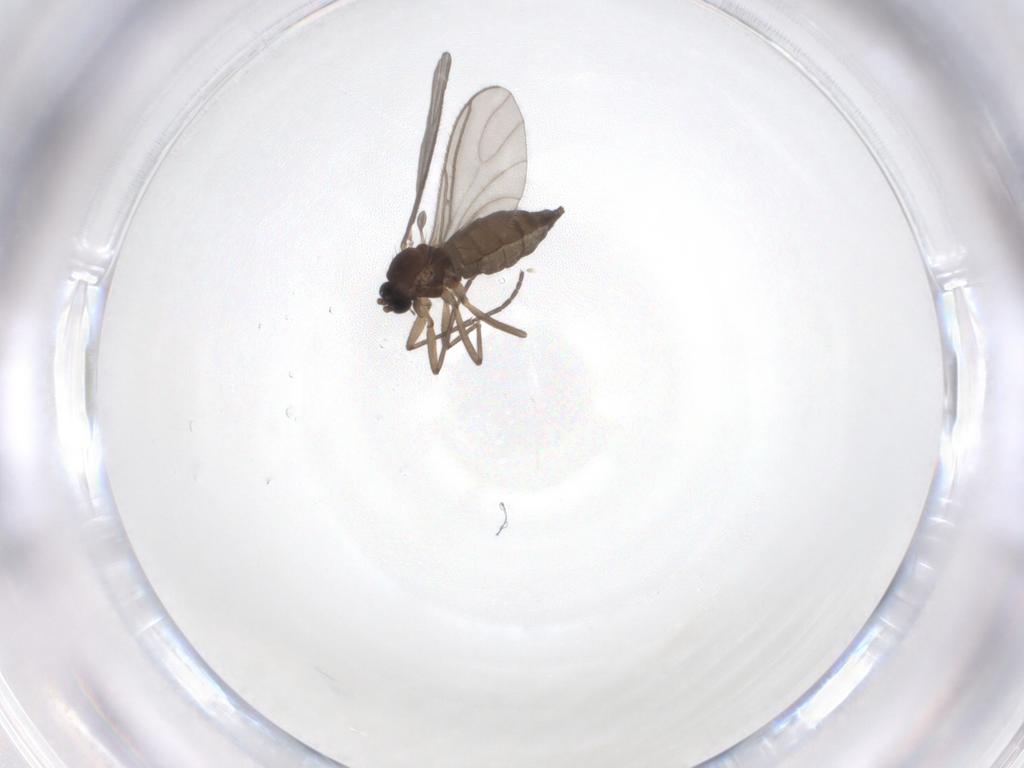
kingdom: Animalia
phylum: Arthropoda
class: Insecta
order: Diptera
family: Sciaridae
